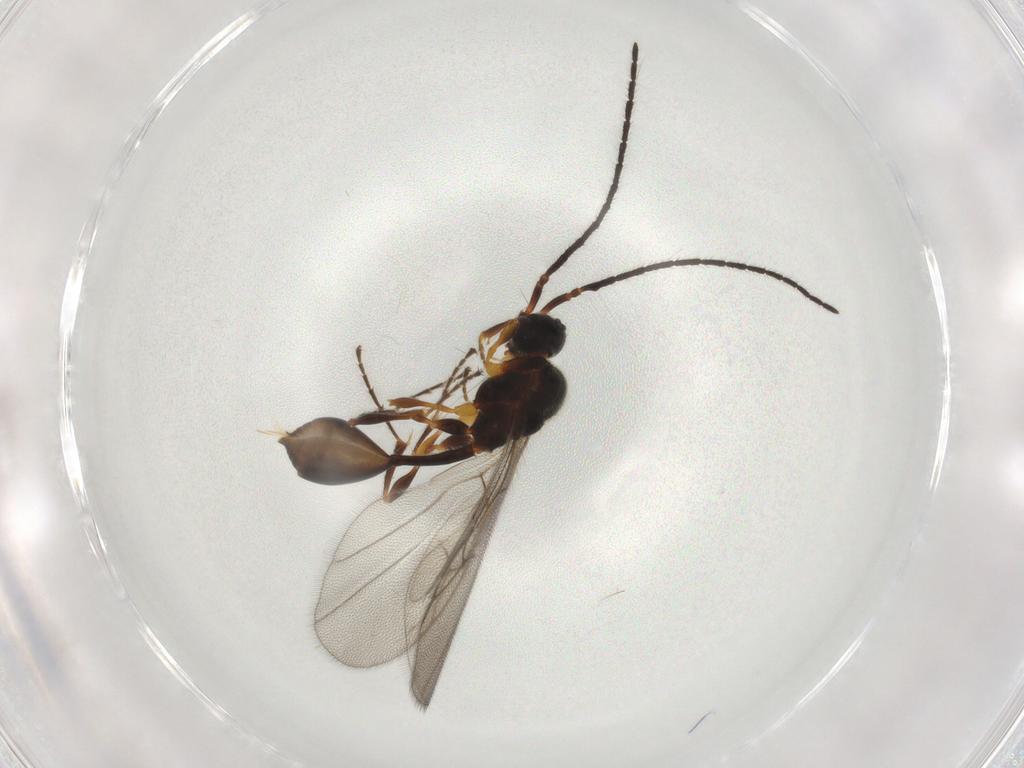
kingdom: Animalia
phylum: Arthropoda
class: Insecta
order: Hymenoptera
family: Diapriidae
